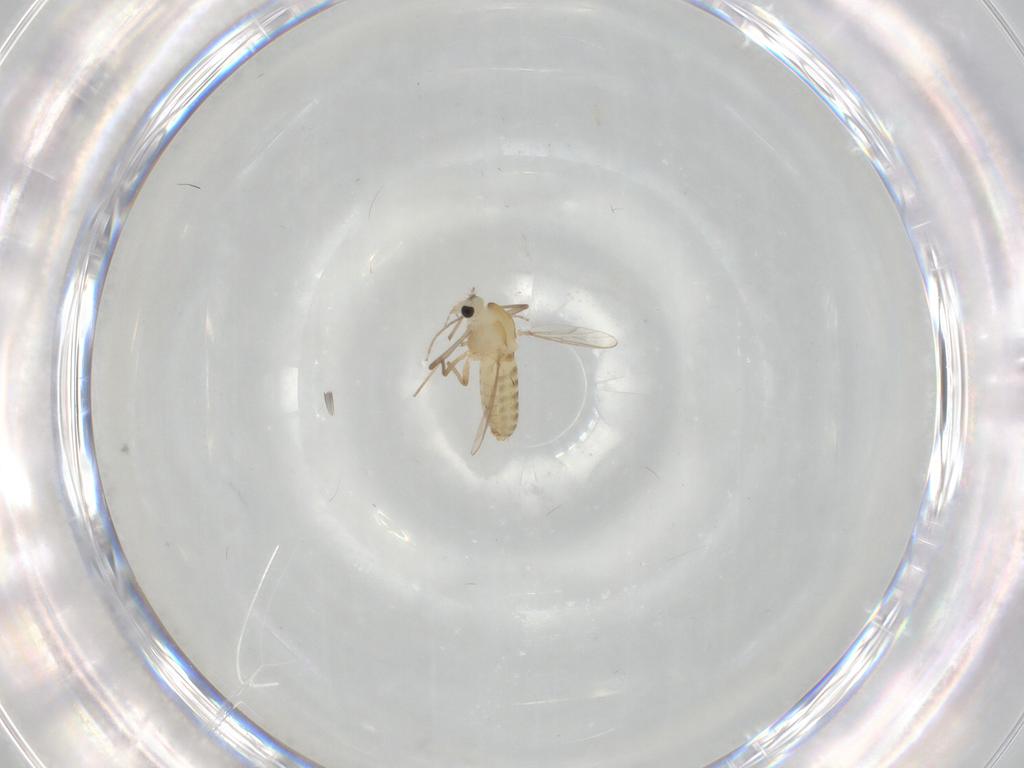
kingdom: Animalia
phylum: Arthropoda
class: Insecta
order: Diptera
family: Chironomidae
